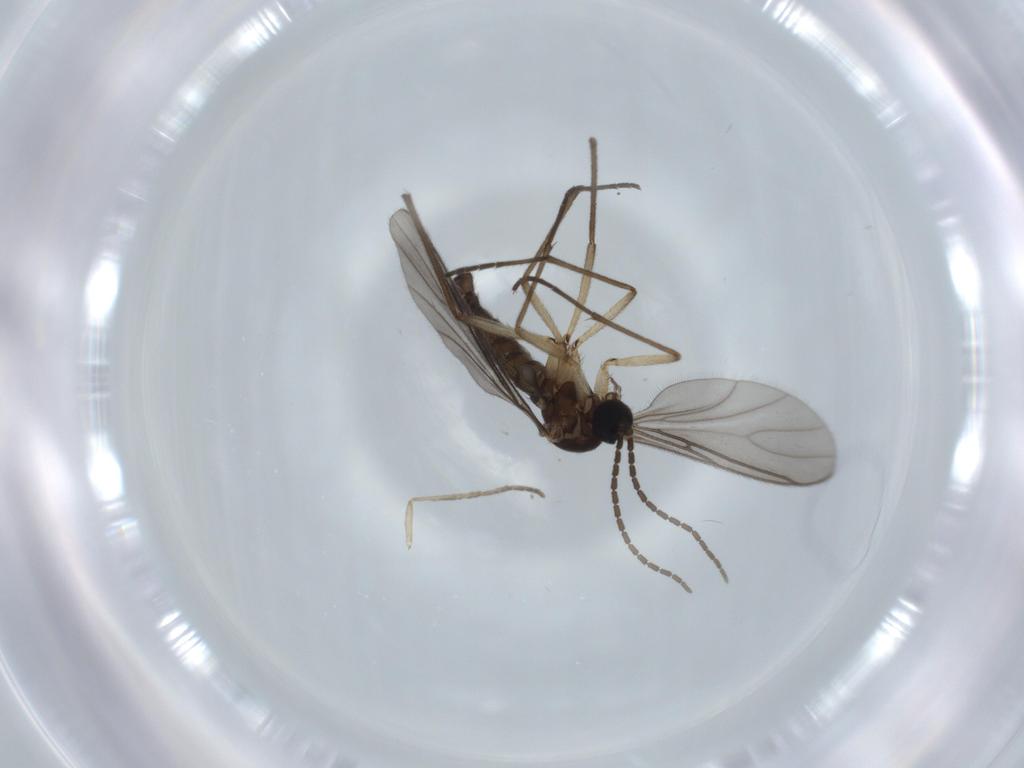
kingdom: Animalia
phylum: Arthropoda
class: Insecta
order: Diptera
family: Sciaridae
